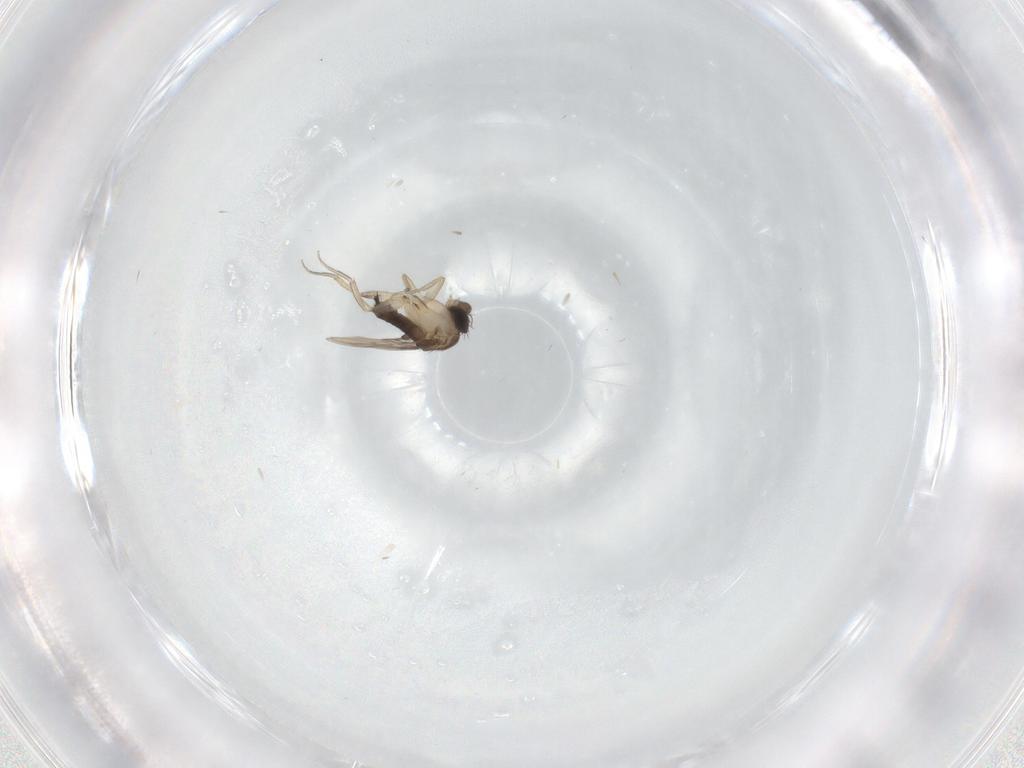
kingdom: Animalia
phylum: Arthropoda
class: Insecta
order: Diptera
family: Phoridae
